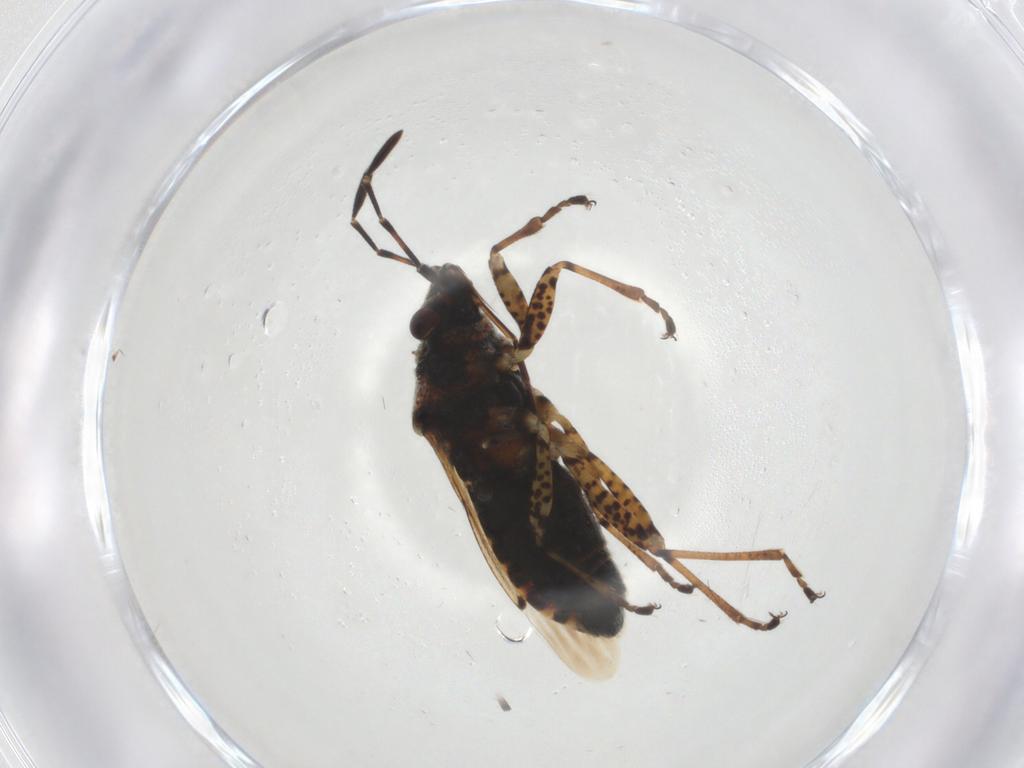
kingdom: Animalia
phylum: Arthropoda
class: Insecta
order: Hemiptera
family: Lygaeidae
